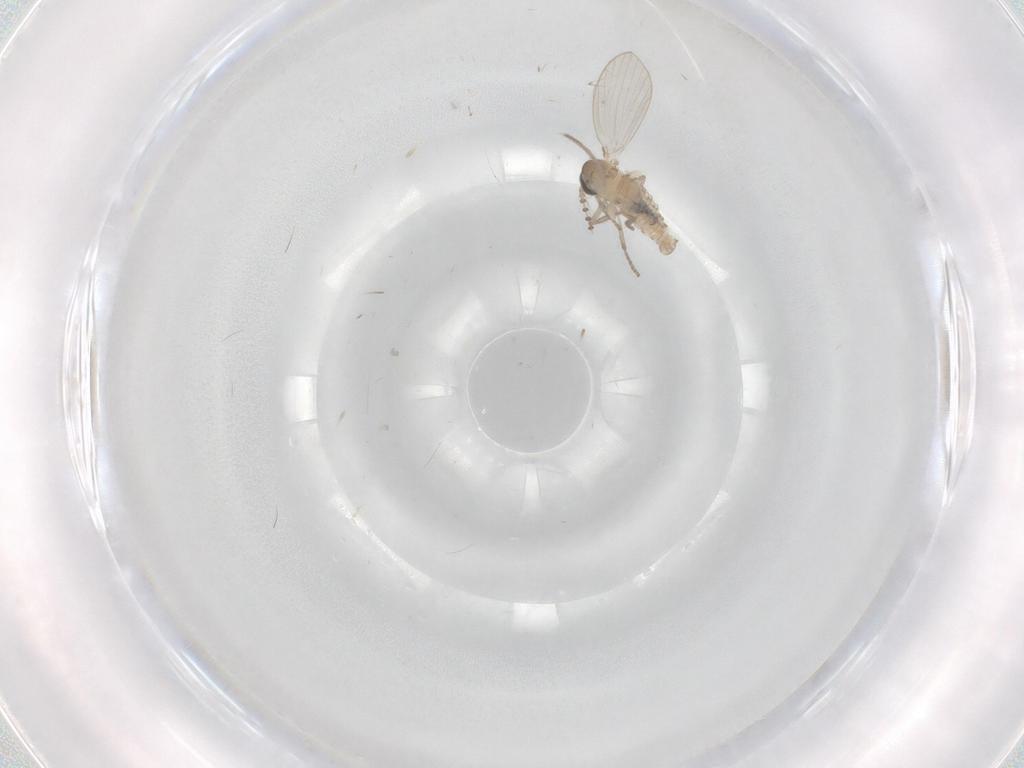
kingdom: Animalia
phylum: Arthropoda
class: Insecta
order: Diptera
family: Psychodidae
